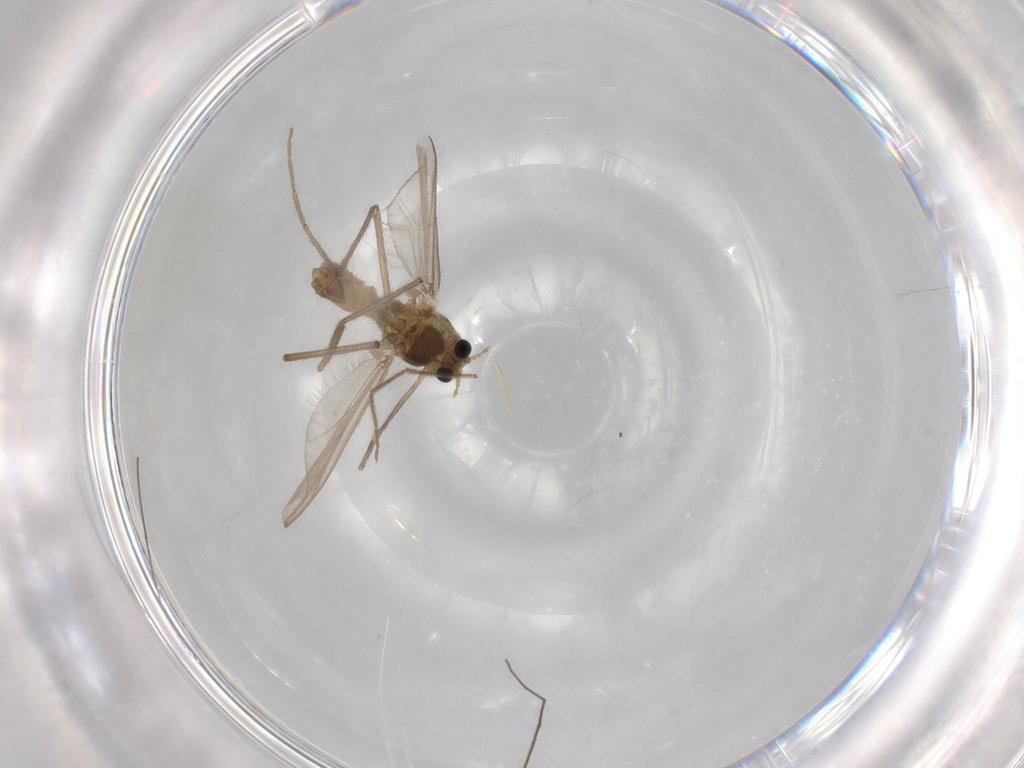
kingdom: Animalia
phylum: Arthropoda
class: Insecta
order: Diptera
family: Chironomidae
